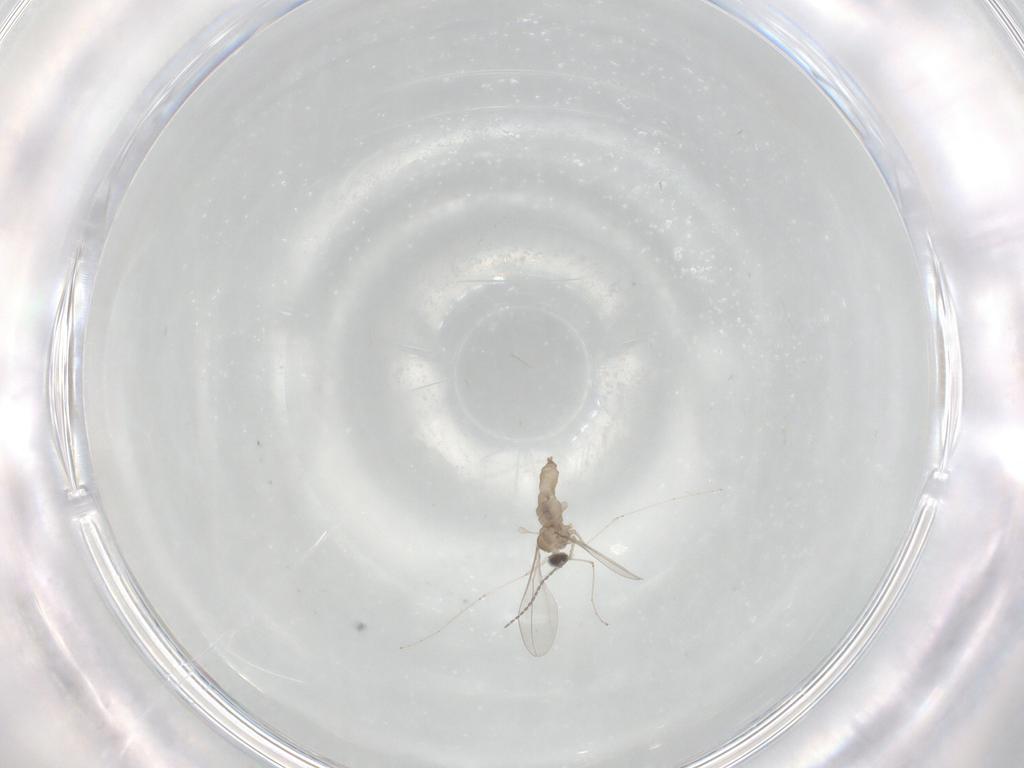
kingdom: Animalia
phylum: Arthropoda
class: Insecta
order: Diptera
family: Cecidomyiidae
